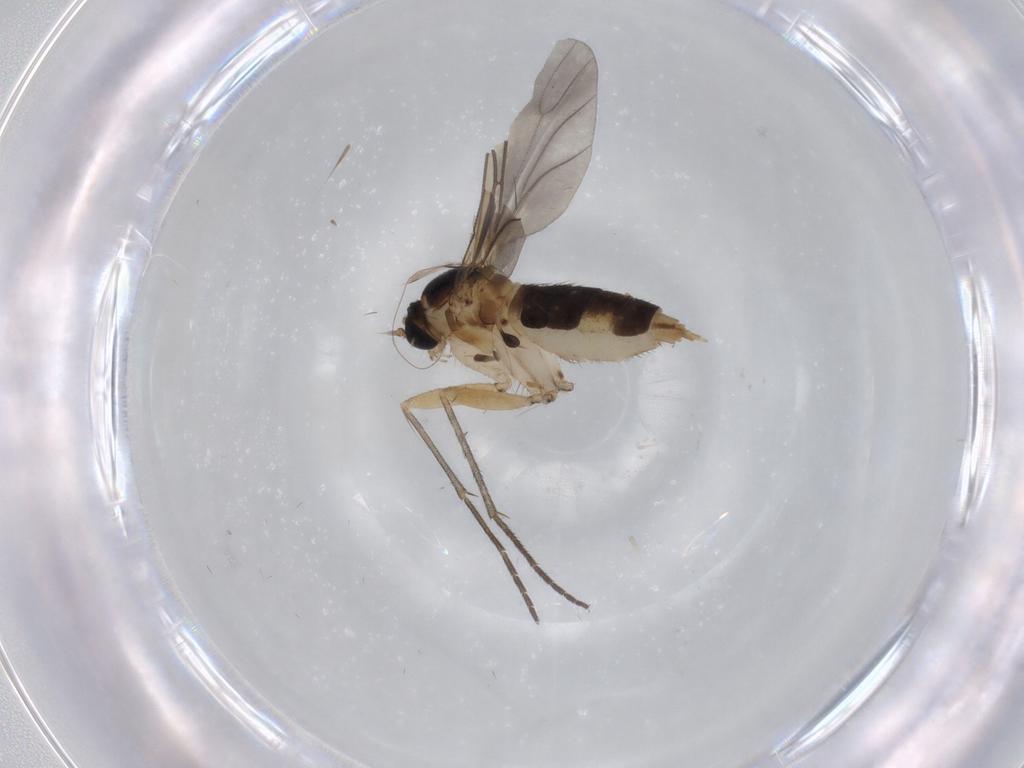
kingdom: Animalia
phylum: Arthropoda
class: Insecta
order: Diptera
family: Sciaridae
